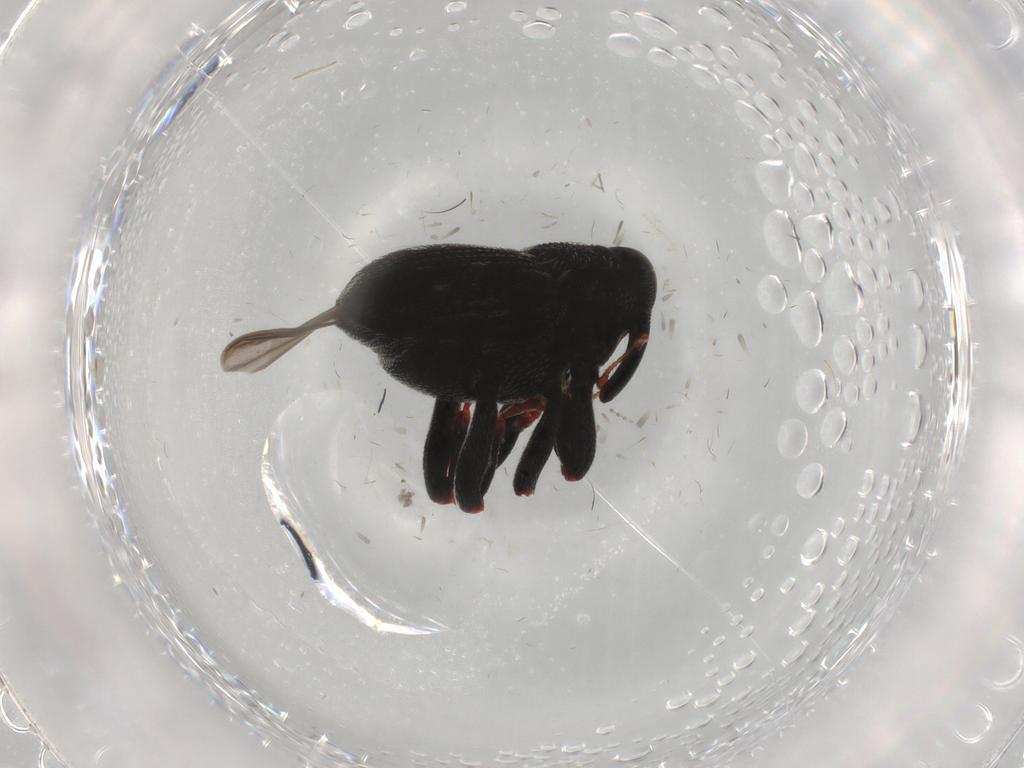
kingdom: Animalia
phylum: Arthropoda
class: Insecta
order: Coleoptera
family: Curculionidae
